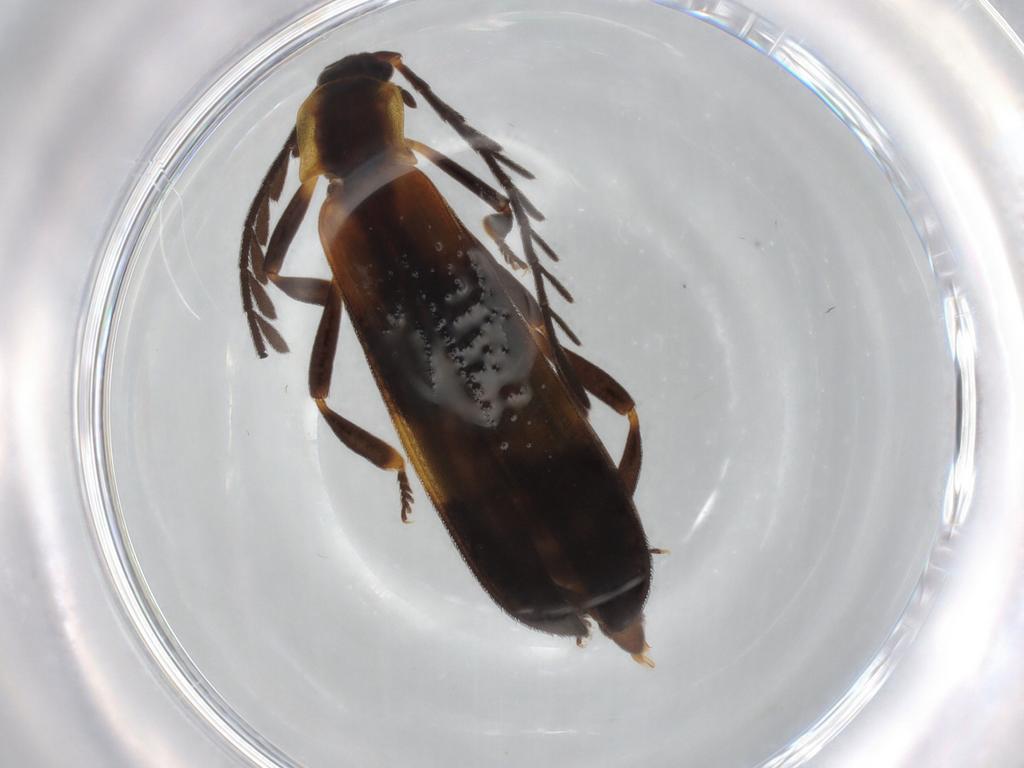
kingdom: Animalia
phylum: Arthropoda
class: Insecta
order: Coleoptera
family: Lycidae
